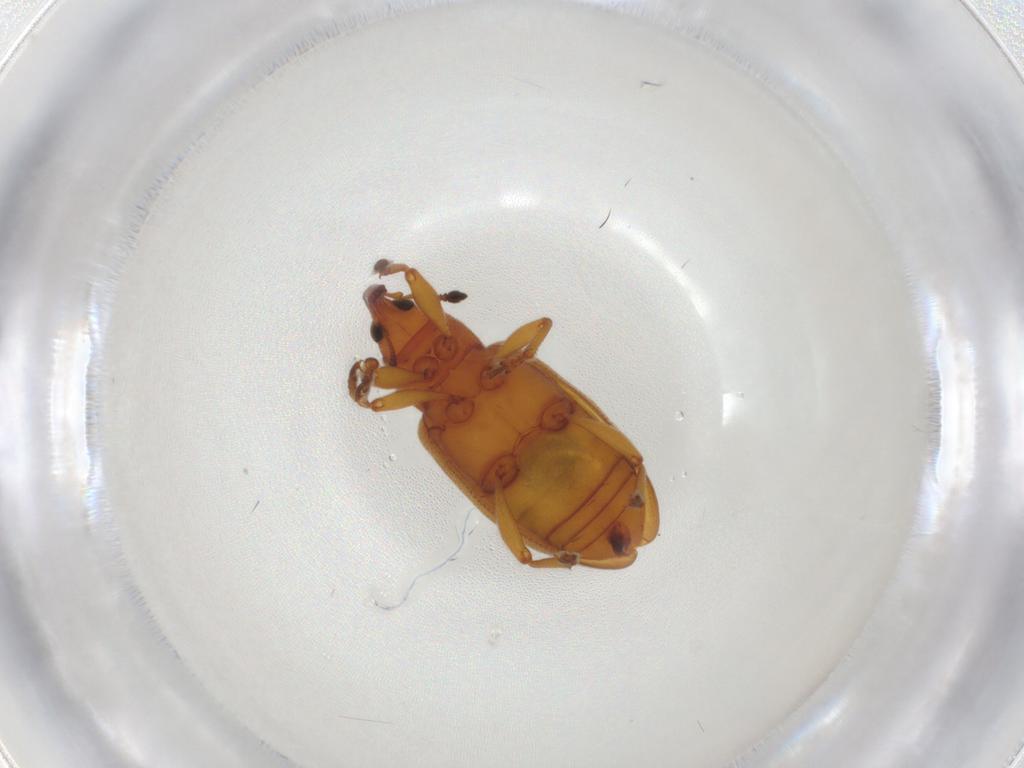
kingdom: Animalia
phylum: Arthropoda
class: Insecta
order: Coleoptera
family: Curculionidae
